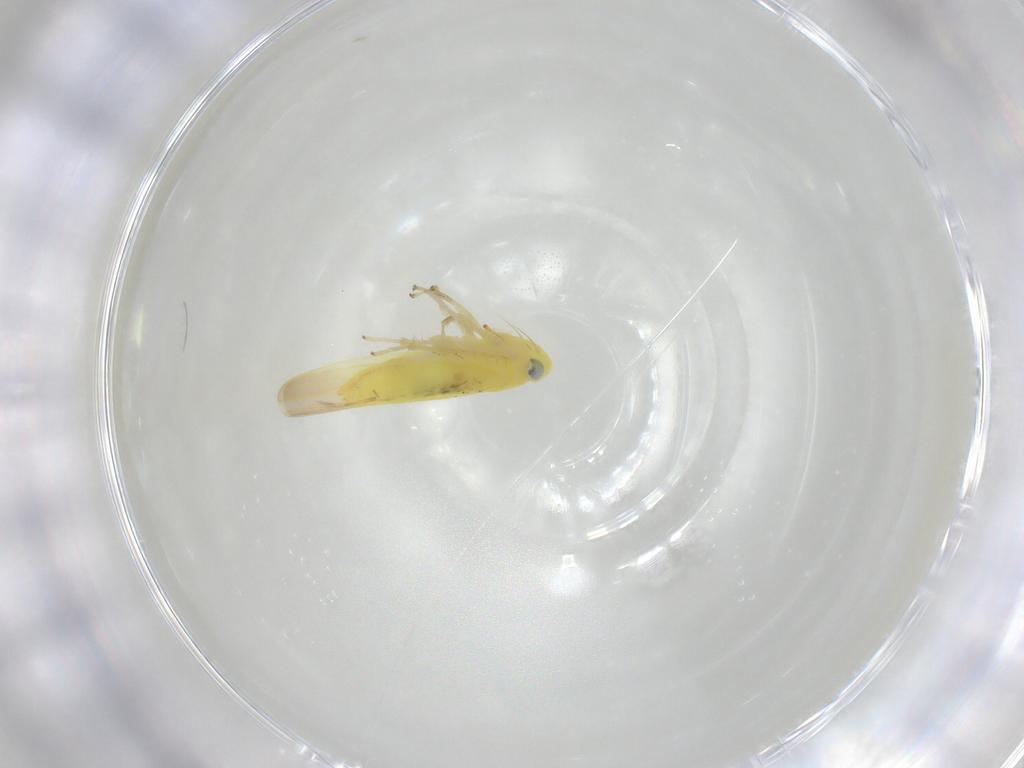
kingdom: Animalia
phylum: Arthropoda
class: Insecta
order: Hemiptera
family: Cicadellidae
